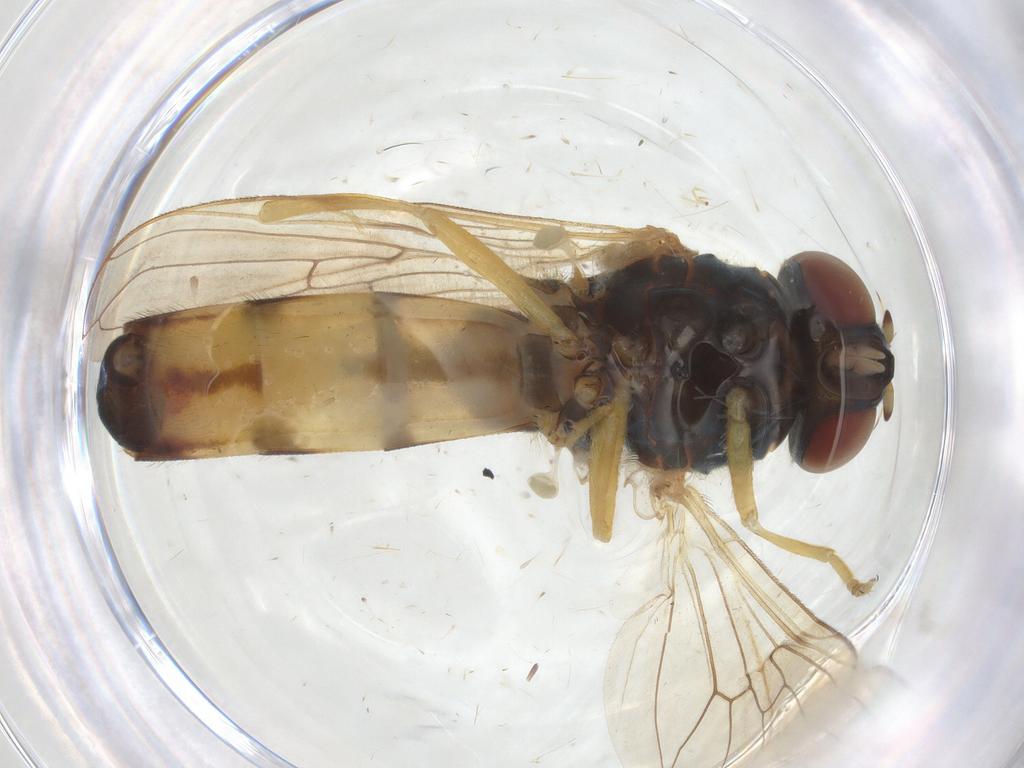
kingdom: Animalia
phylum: Arthropoda
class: Insecta
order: Diptera
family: Syrphidae
